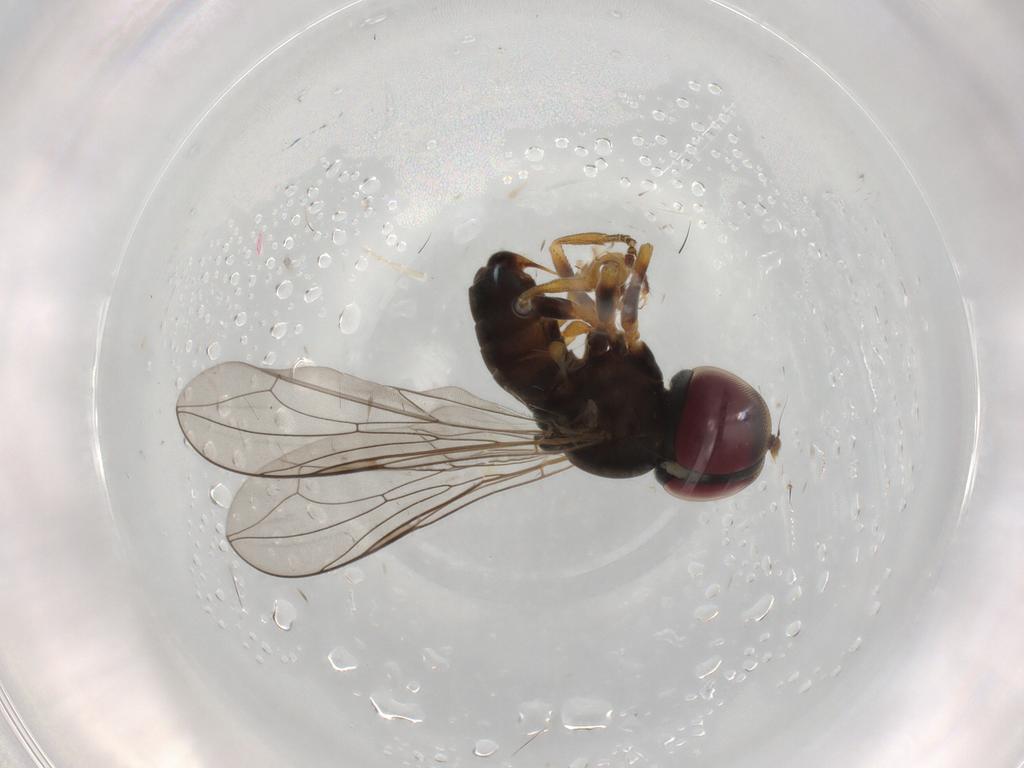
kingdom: Animalia
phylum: Arthropoda
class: Insecta
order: Diptera
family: Pipunculidae
